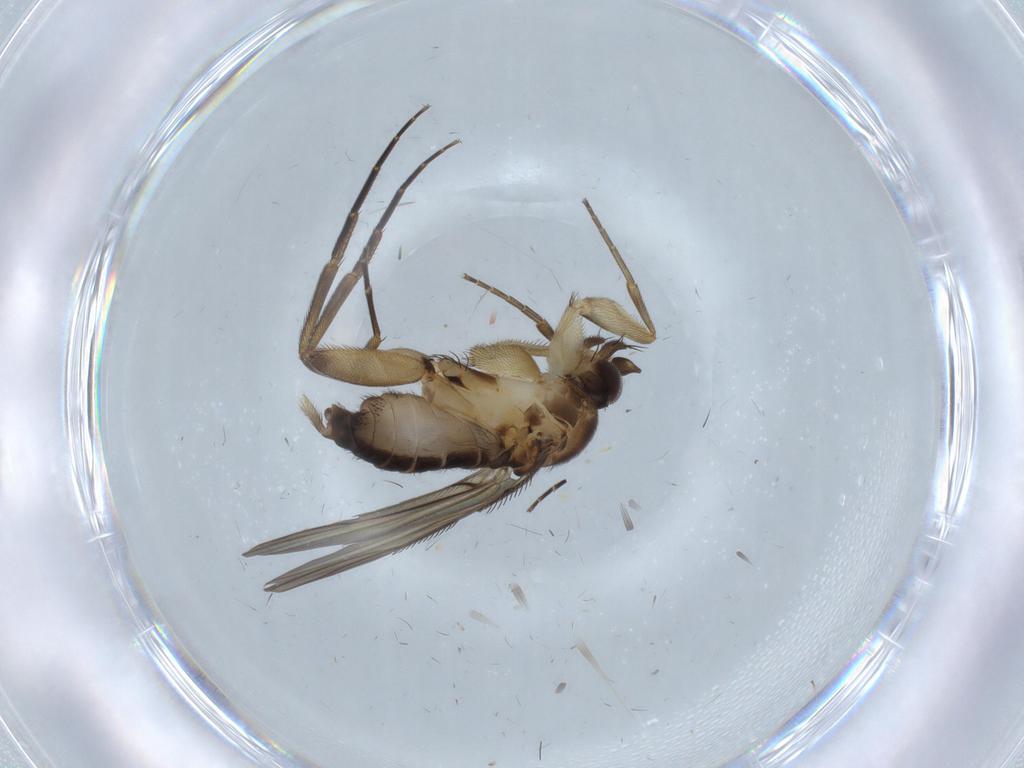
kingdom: Animalia
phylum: Arthropoda
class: Insecta
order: Diptera
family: Phoridae
